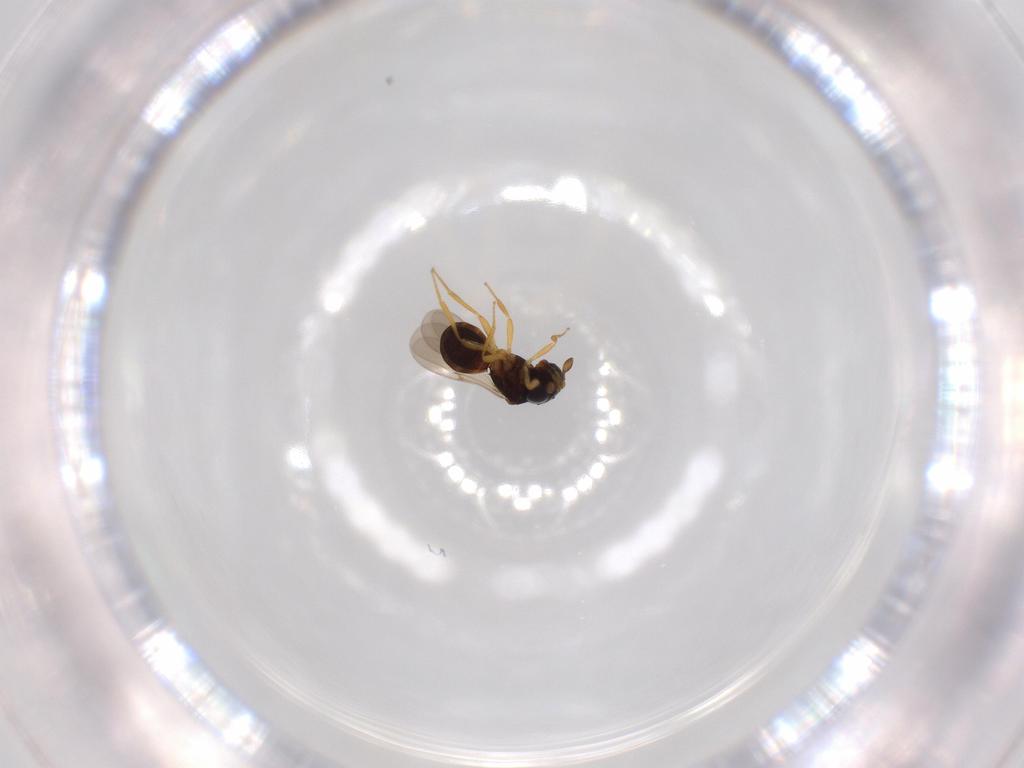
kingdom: Animalia
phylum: Arthropoda
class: Insecta
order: Hymenoptera
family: Scelionidae
